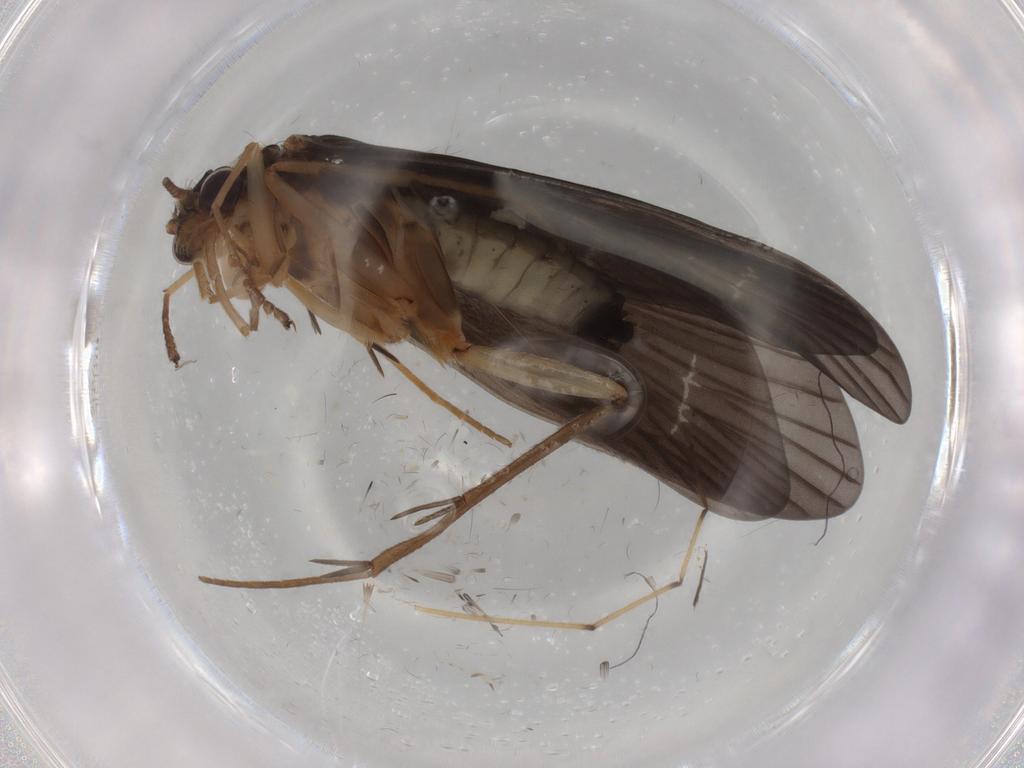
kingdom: Animalia
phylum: Arthropoda
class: Insecta
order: Trichoptera
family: Philopotamidae
